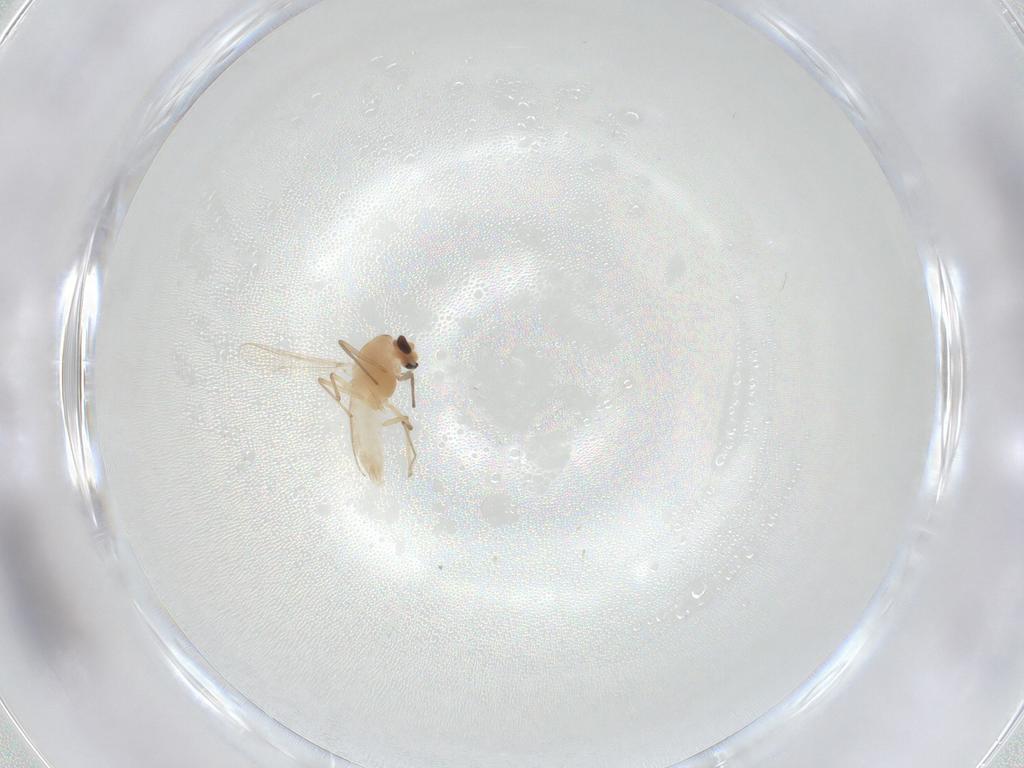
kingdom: Animalia
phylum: Arthropoda
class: Insecta
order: Diptera
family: Chironomidae
